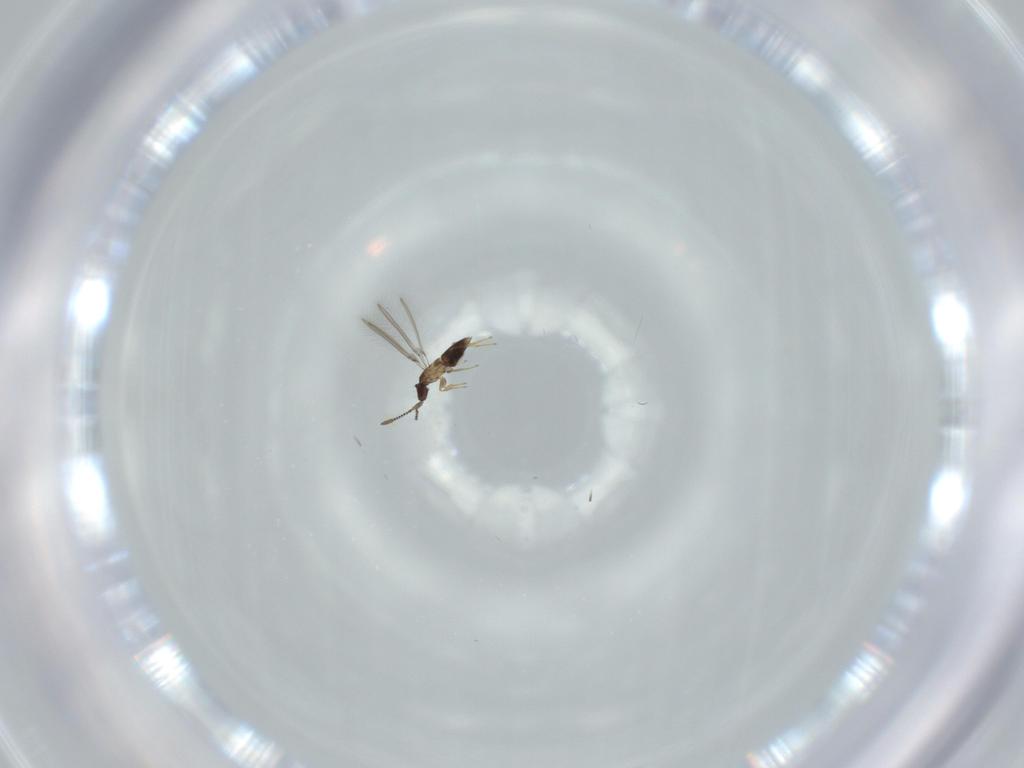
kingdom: Animalia
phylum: Arthropoda
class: Insecta
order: Hymenoptera
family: Mymaridae
